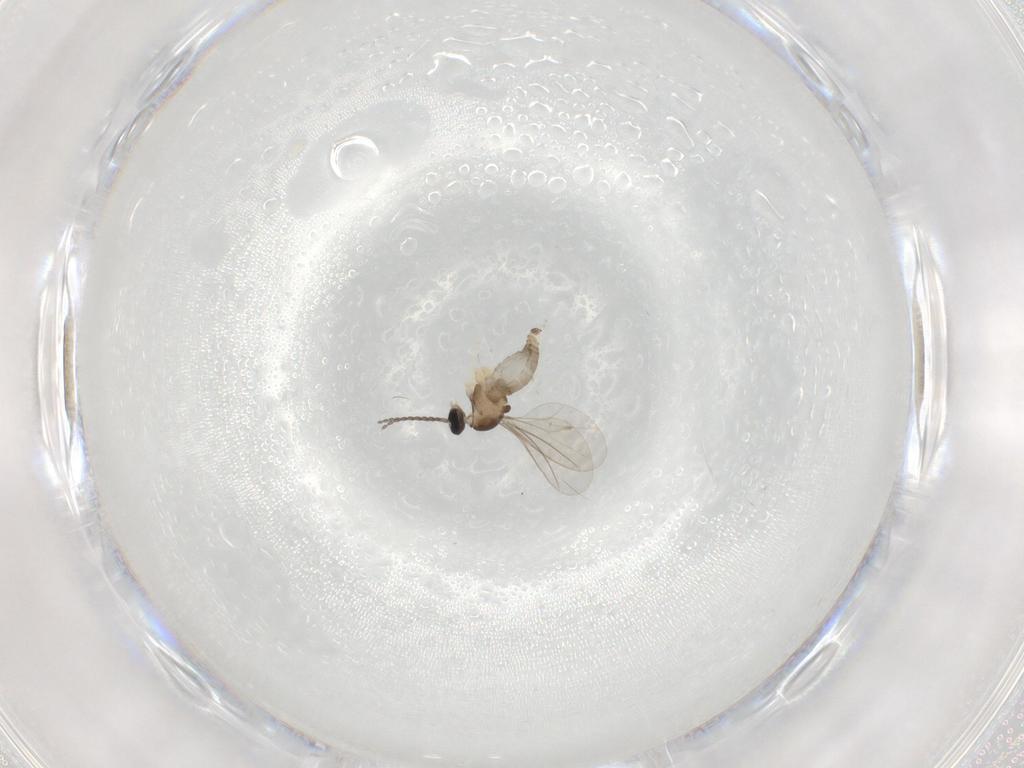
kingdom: Animalia
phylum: Arthropoda
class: Insecta
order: Diptera
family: Cecidomyiidae
